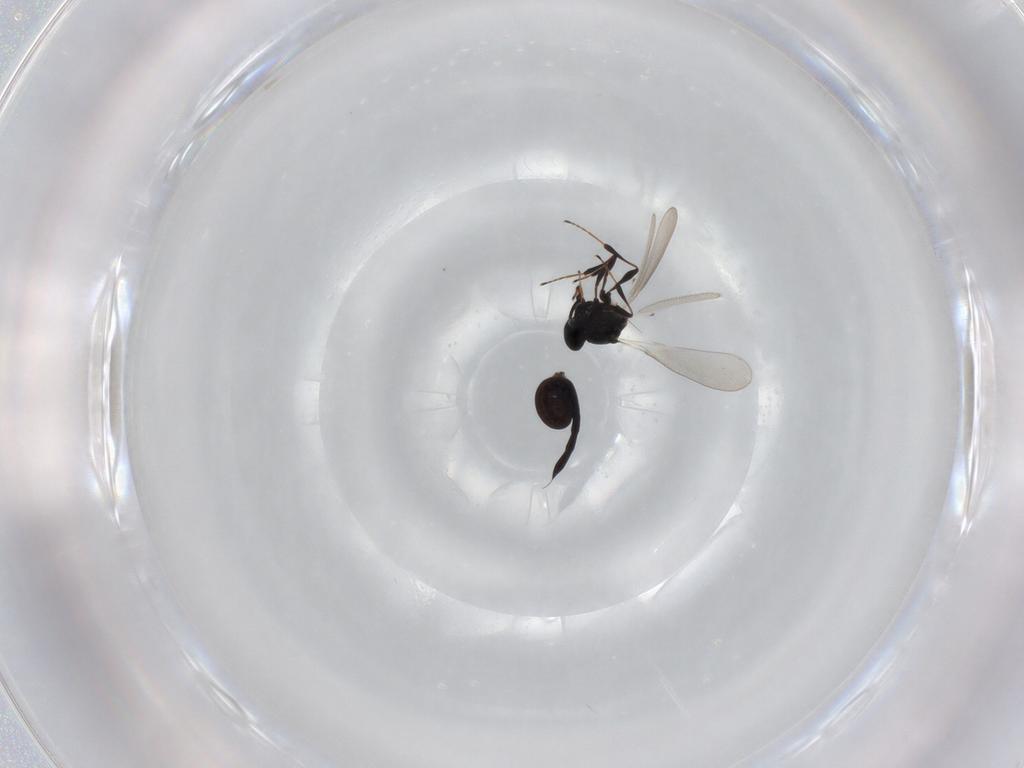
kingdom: Animalia
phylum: Arthropoda
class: Insecta
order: Hymenoptera
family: Platygastridae
